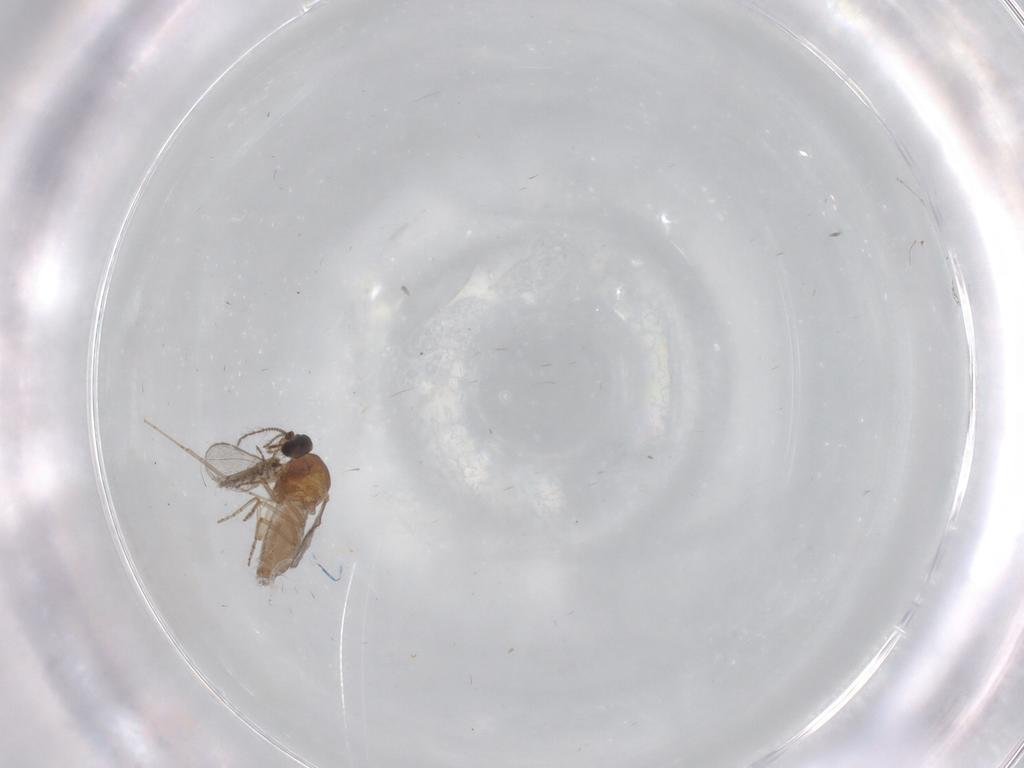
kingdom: Animalia
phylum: Arthropoda
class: Insecta
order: Diptera
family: Ceratopogonidae
